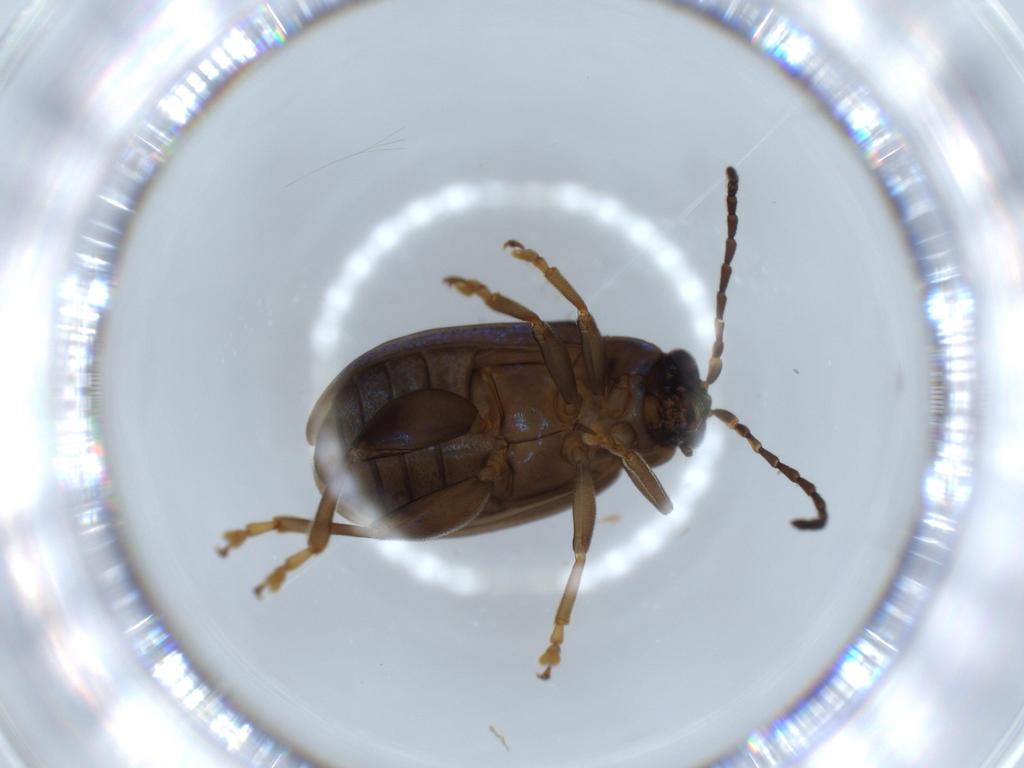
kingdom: Animalia
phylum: Arthropoda
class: Insecta
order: Coleoptera
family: Chrysomelidae
